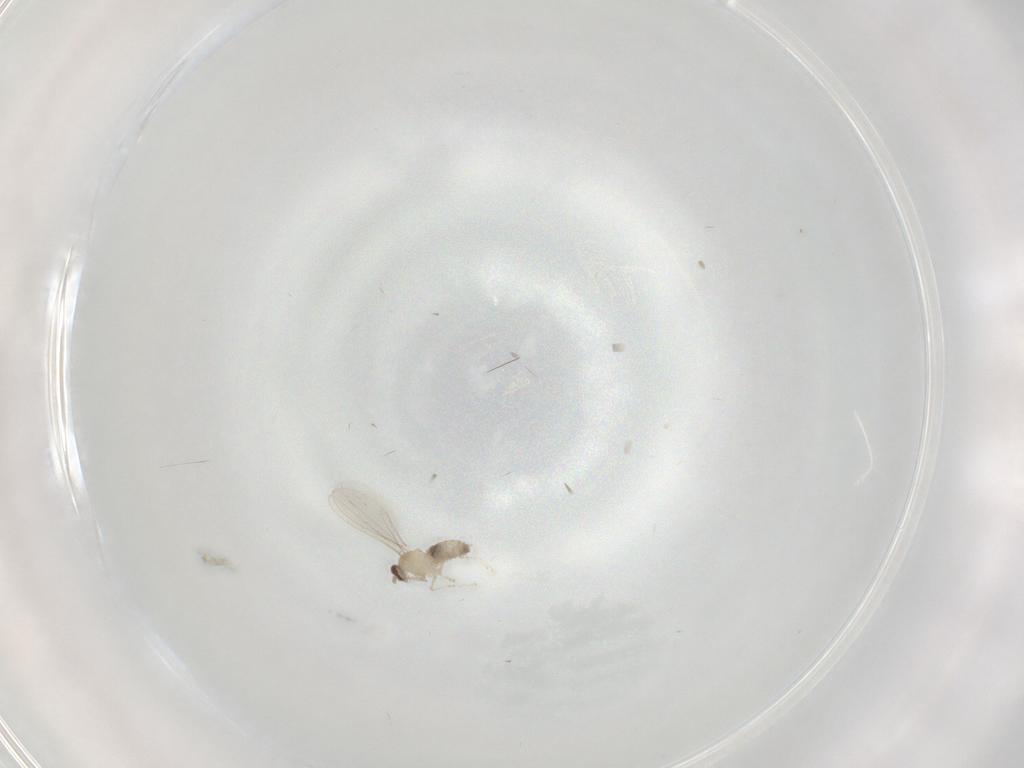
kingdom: Animalia
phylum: Arthropoda
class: Insecta
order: Diptera
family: Cecidomyiidae
